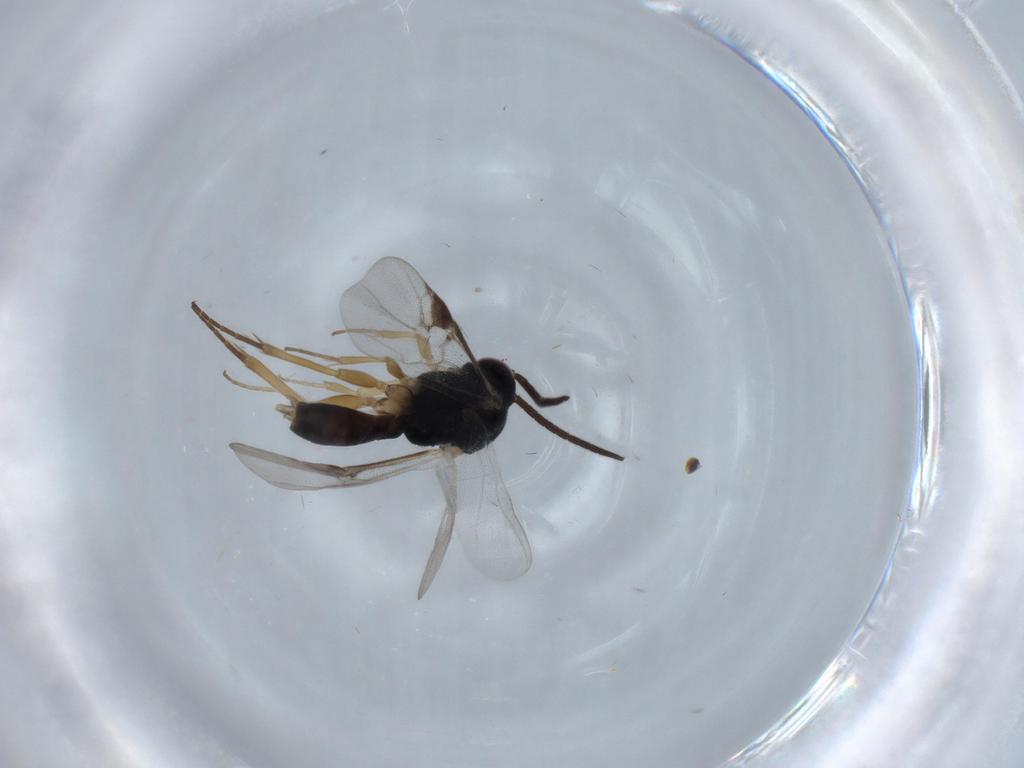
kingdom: Animalia
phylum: Arthropoda
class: Insecta
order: Hymenoptera
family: Braconidae
